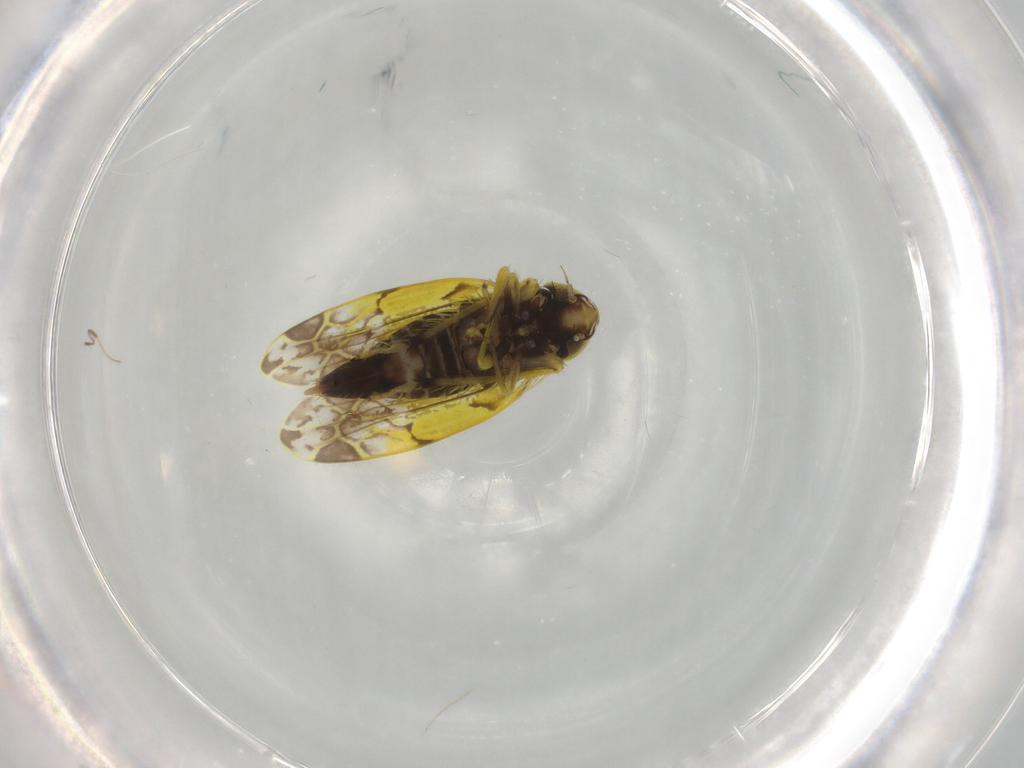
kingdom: Animalia
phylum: Arthropoda
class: Insecta
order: Hemiptera
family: Cicadellidae
